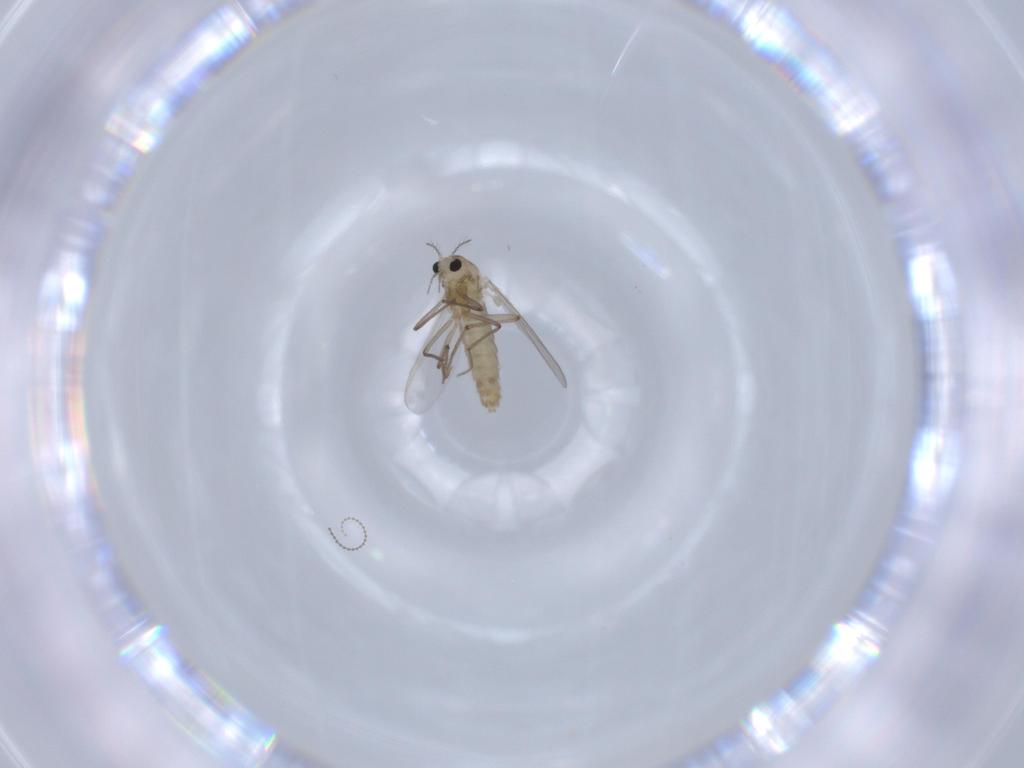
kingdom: Animalia
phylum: Arthropoda
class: Insecta
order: Diptera
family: Chironomidae
